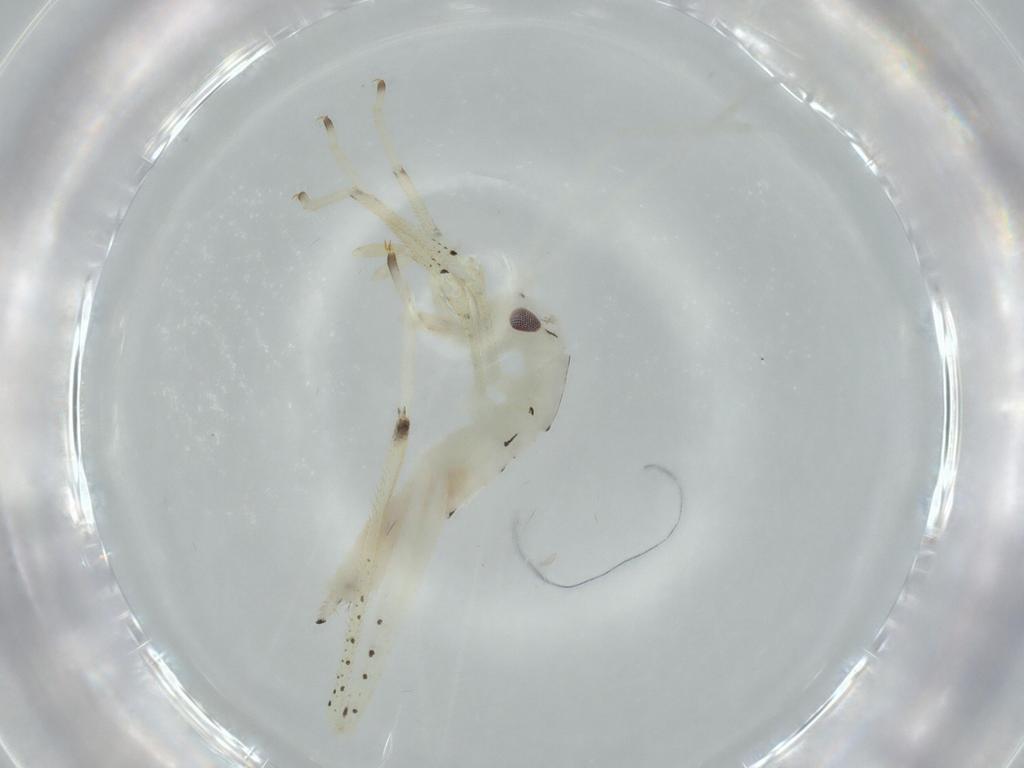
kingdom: Animalia
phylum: Arthropoda
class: Insecta
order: Orthoptera
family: Oecanthidae
